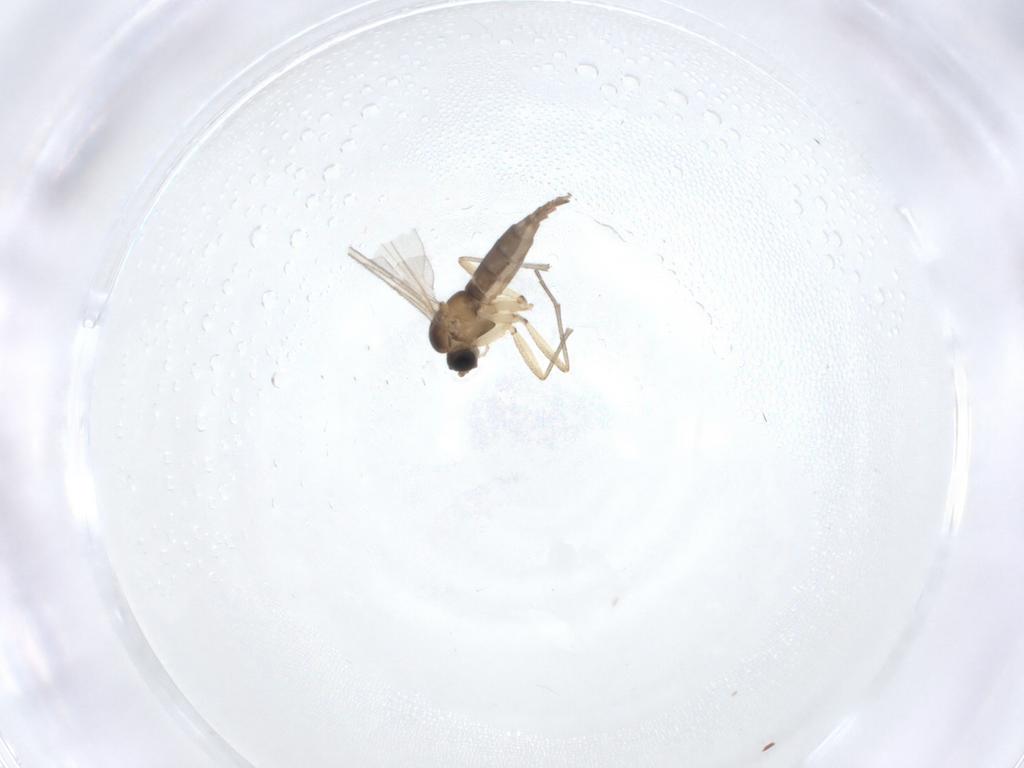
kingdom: Animalia
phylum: Arthropoda
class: Insecta
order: Diptera
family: Sciaridae
